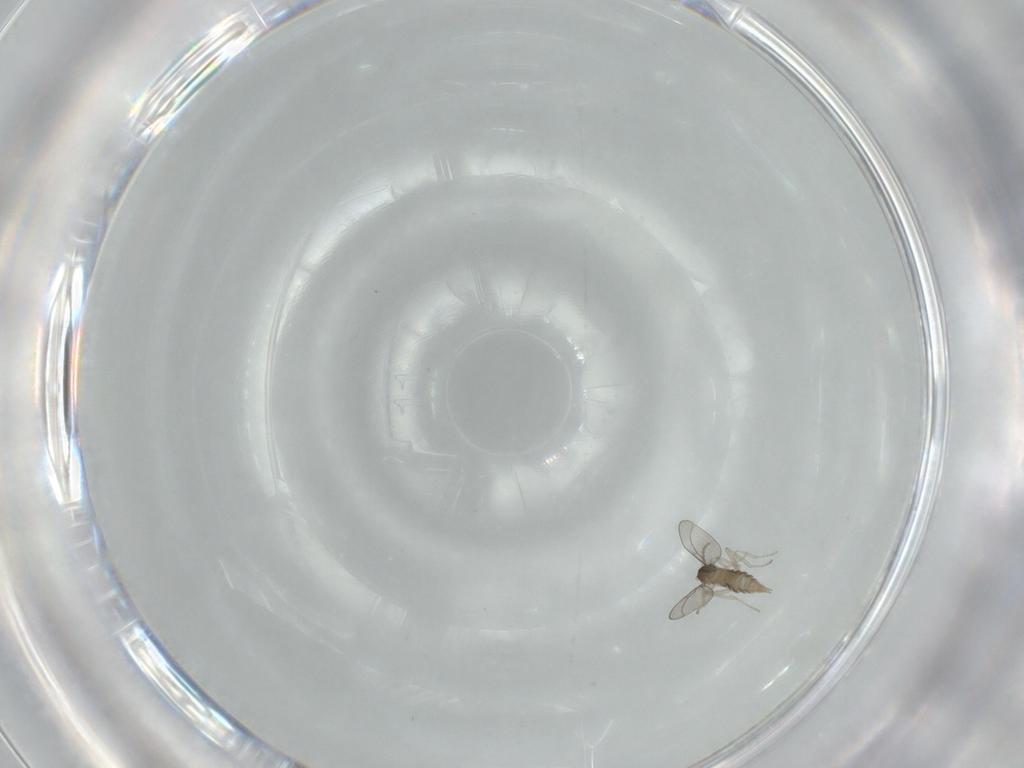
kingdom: Animalia
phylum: Arthropoda
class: Insecta
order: Diptera
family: Cecidomyiidae
